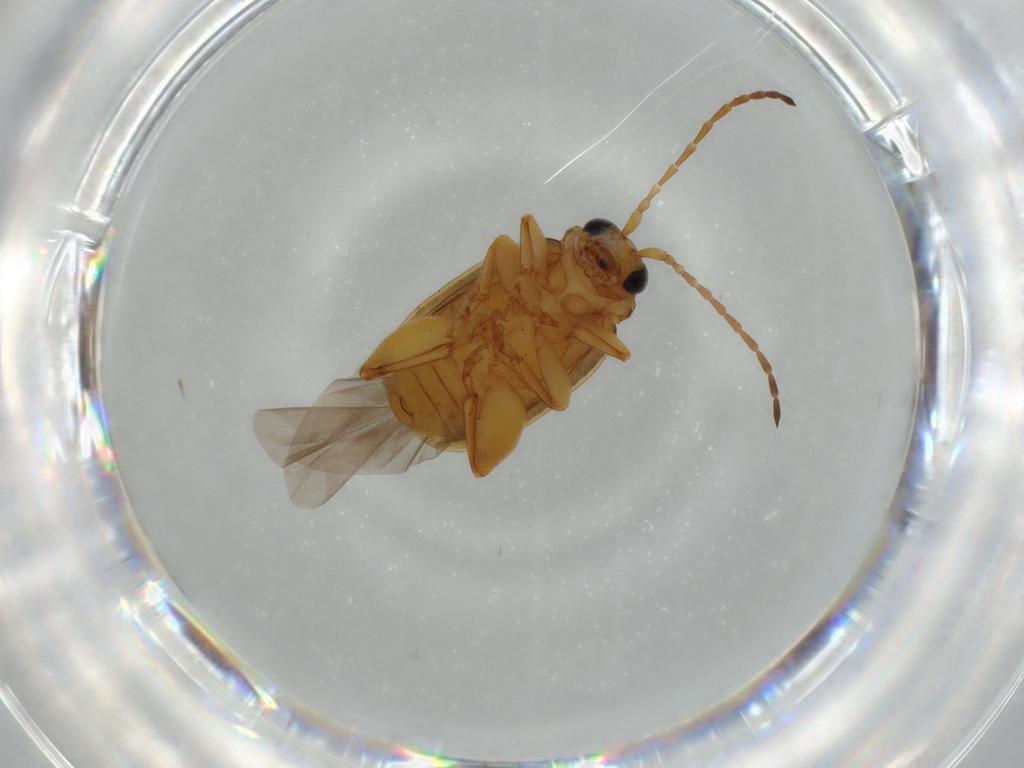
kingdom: Animalia
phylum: Arthropoda
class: Insecta
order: Coleoptera
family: Chrysomelidae
